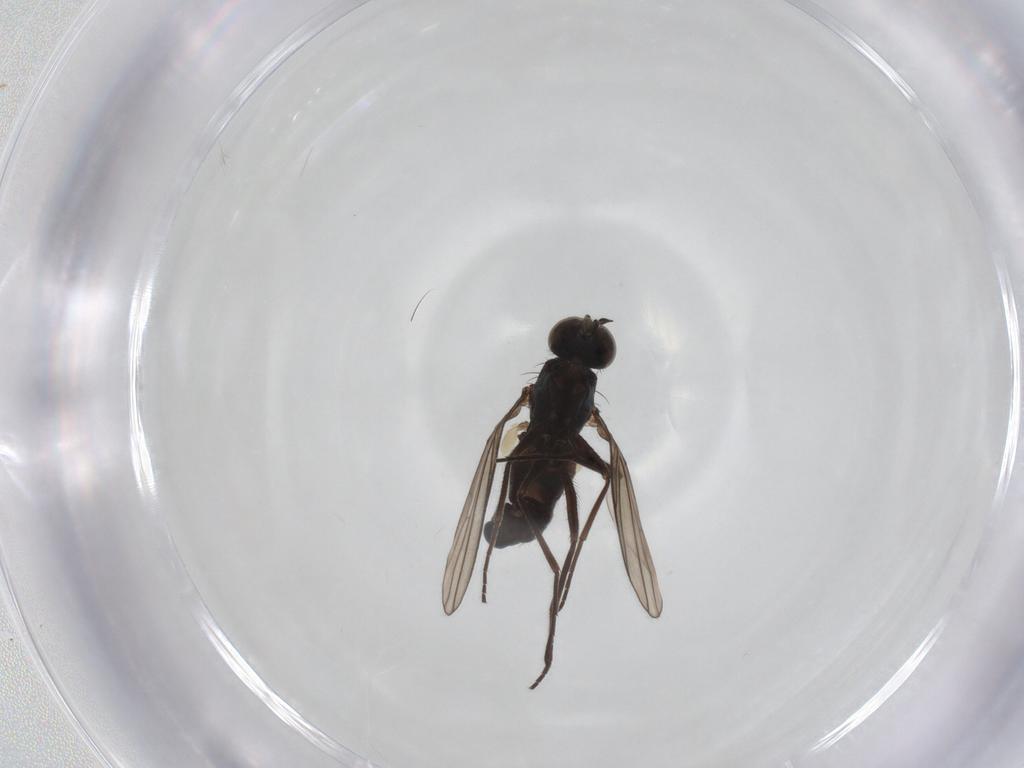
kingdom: Animalia
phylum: Arthropoda
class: Insecta
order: Diptera
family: Dolichopodidae
